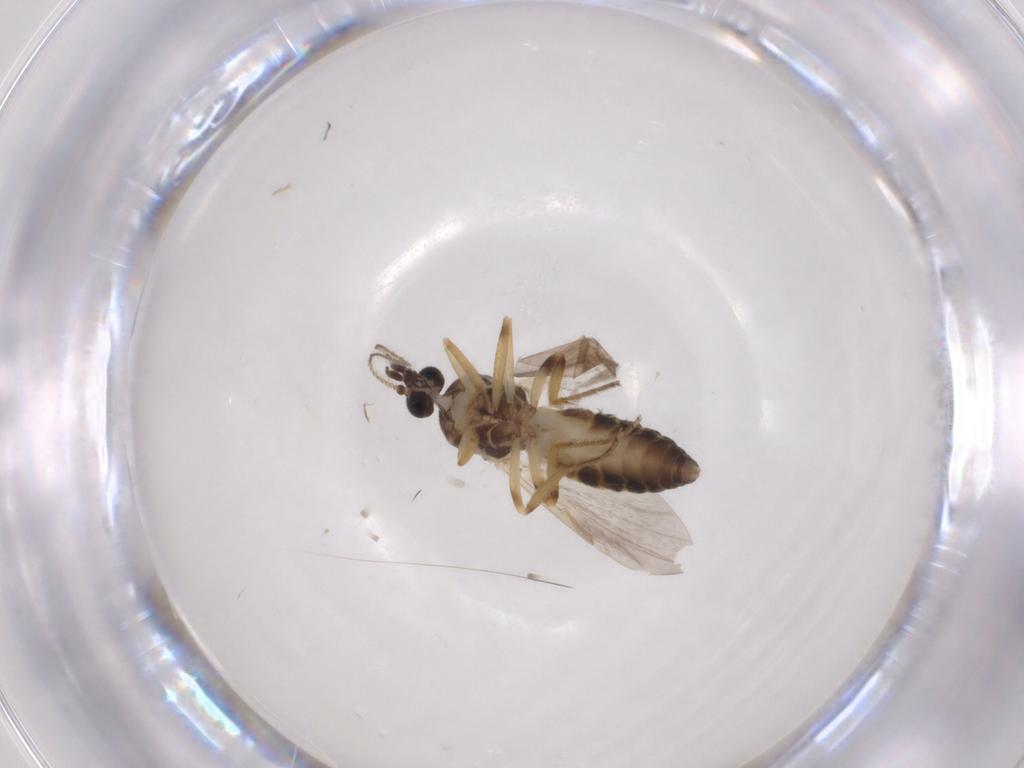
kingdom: Animalia
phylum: Arthropoda
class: Insecta
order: Diptera
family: Ceratopogonidae
